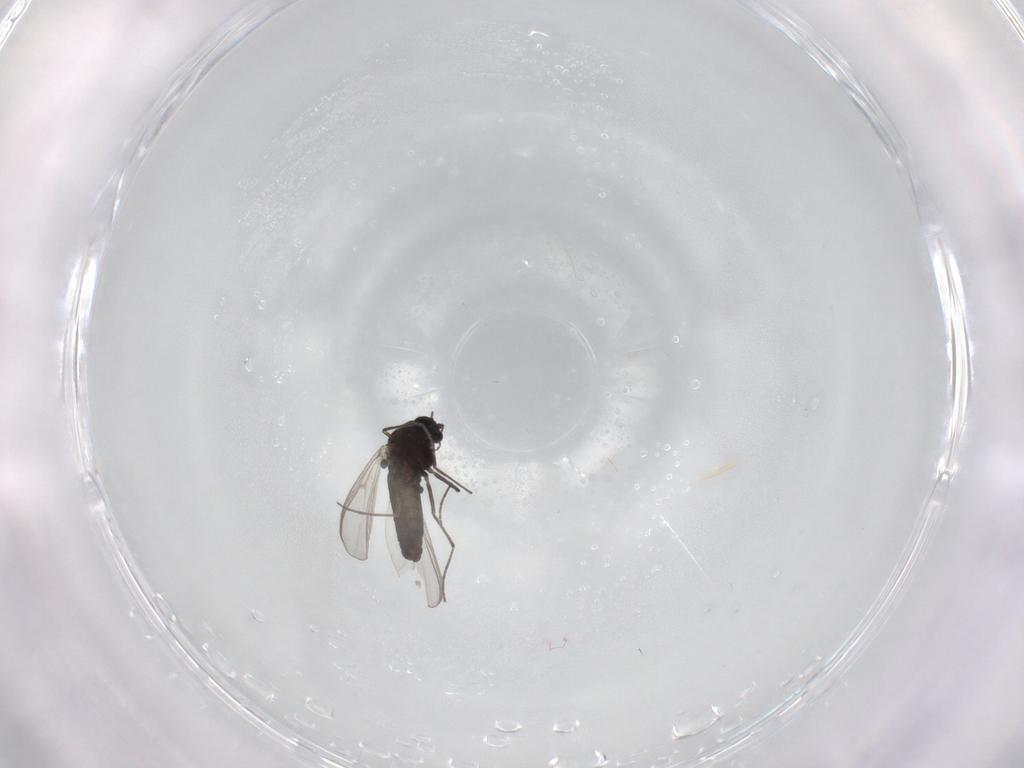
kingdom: Animalia
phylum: Arthropoda
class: Insecta
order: Diptera
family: Chironomidae
